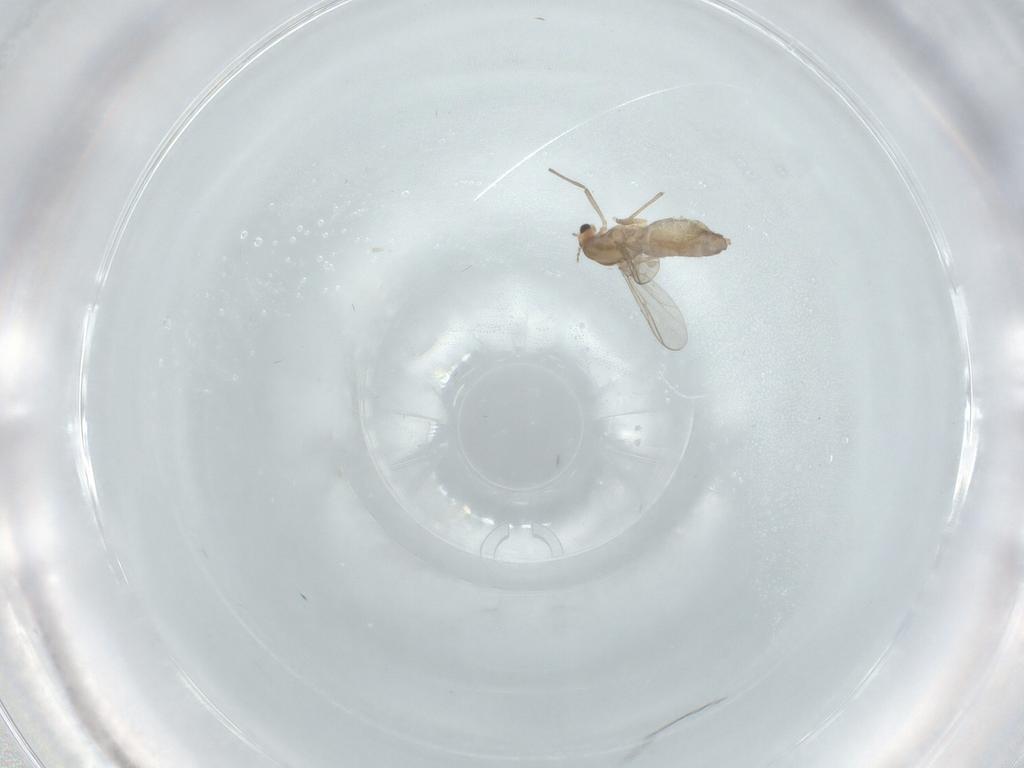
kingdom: Animalia
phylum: Arthropoda
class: Insecta
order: Diptera
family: Chironomidae
